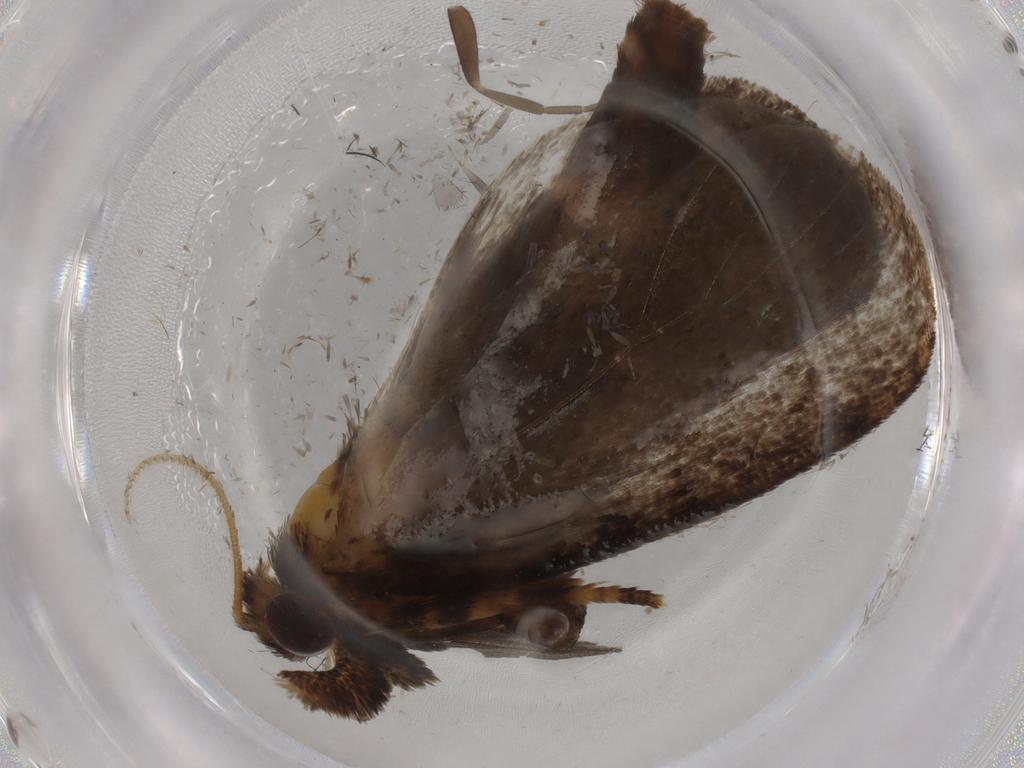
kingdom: Animalia
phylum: Arthropoda
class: Insecta
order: Lepidoptera
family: Tineidae
